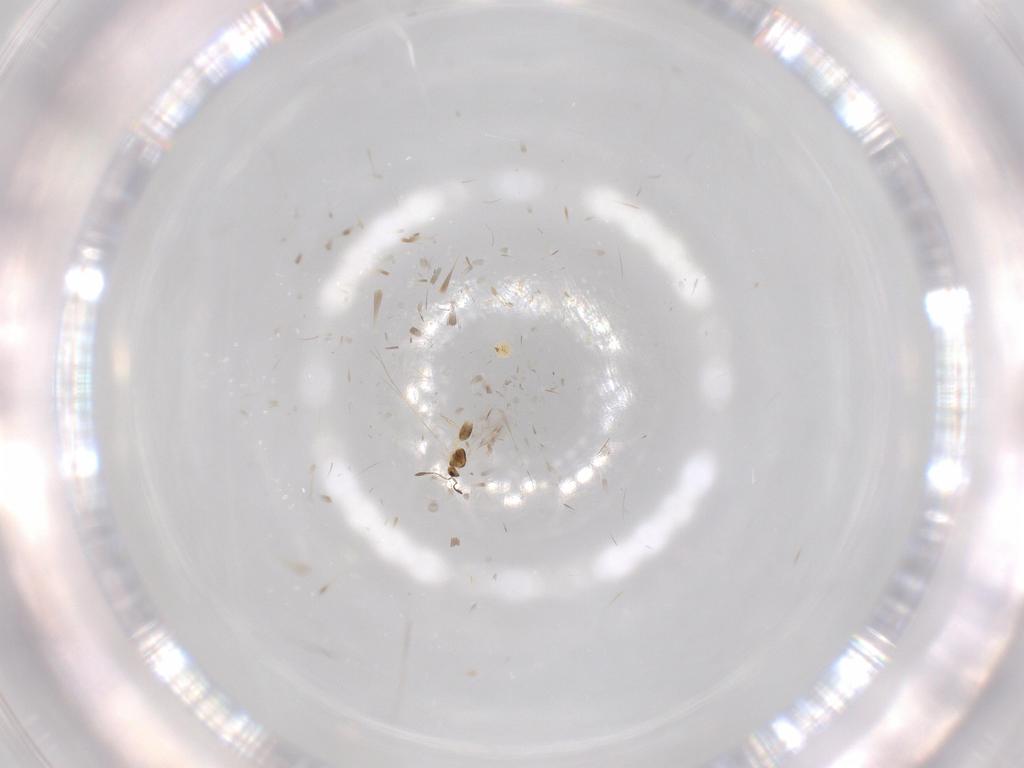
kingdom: Animalia
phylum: Arthropoda
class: Insecta
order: Hymenoptera
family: Mymarommatidae
